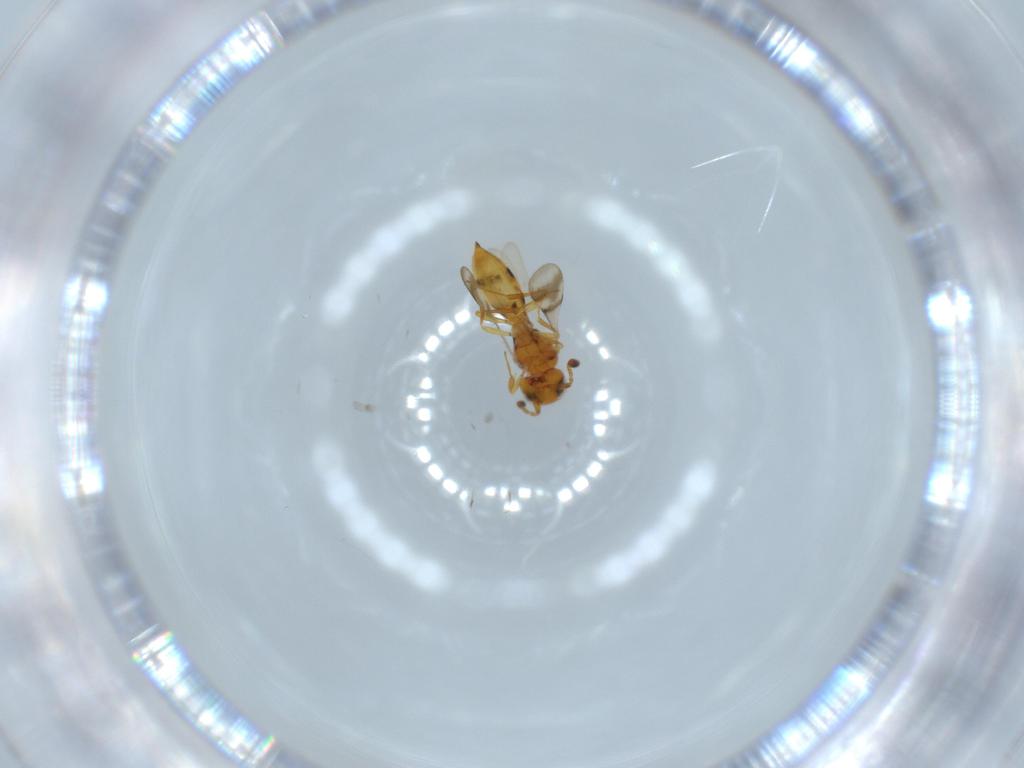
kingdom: Animalia
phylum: Arthropoda
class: Insecta
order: Hymenoptera
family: Scelionidae
